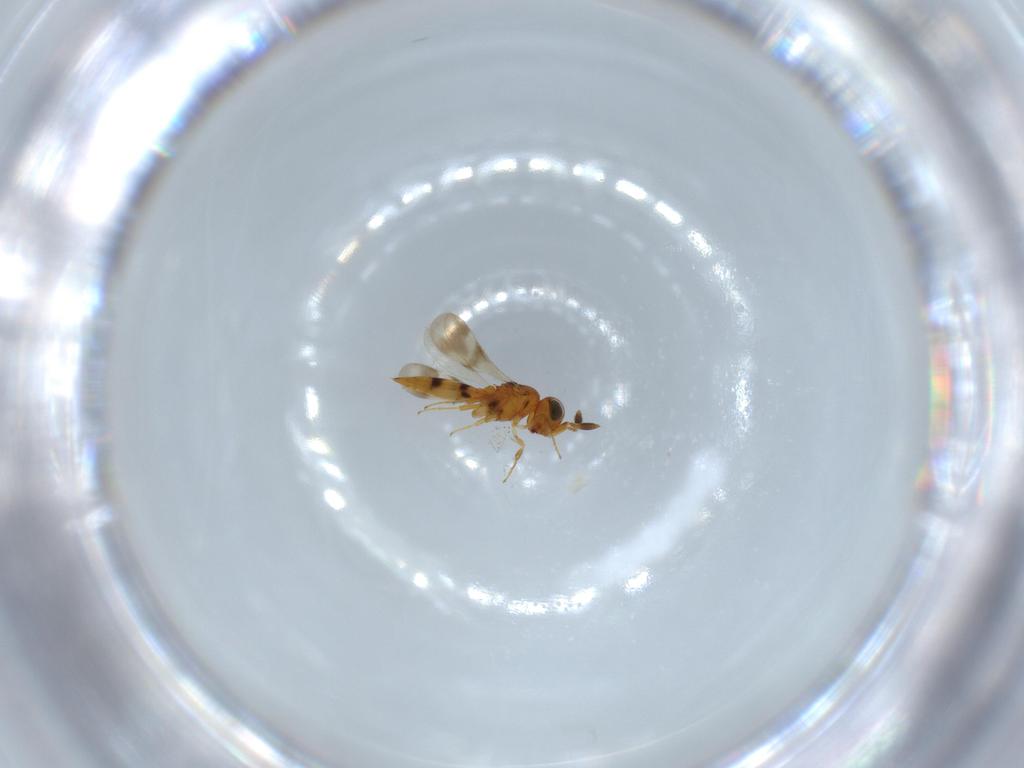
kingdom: Animalia
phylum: Arthropoda
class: Insecta
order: Hymenoptera
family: Scelionidae
